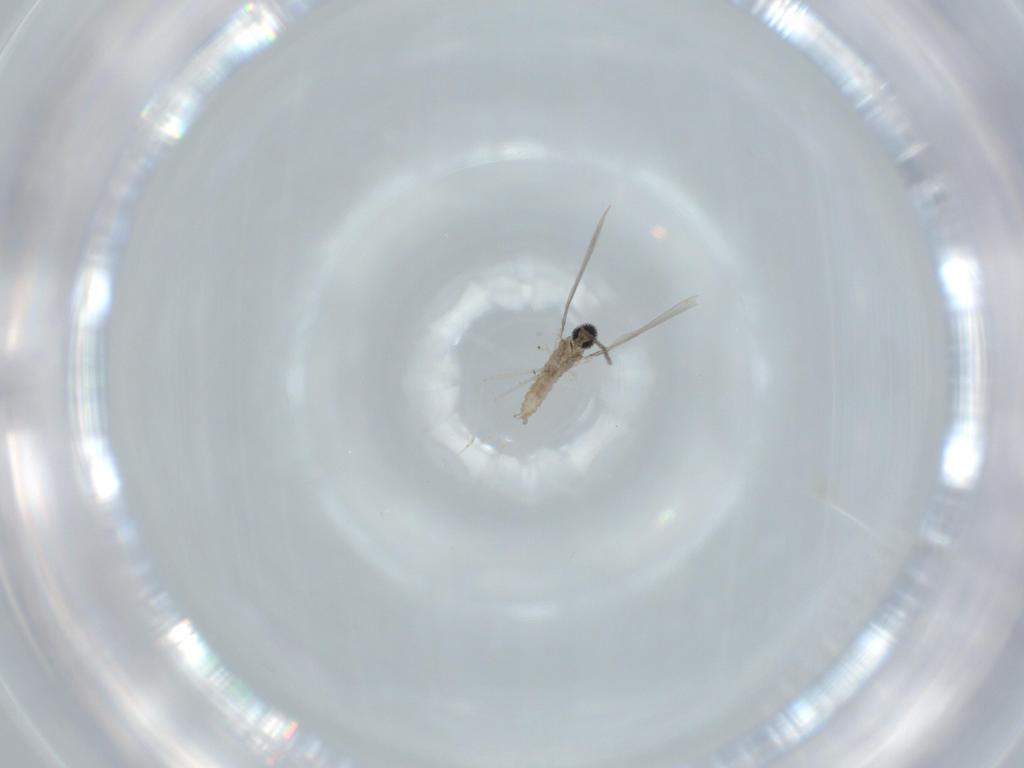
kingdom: Animalia
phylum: Arthropoda
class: Insecta
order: Diptera
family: Cecidomyiidae
